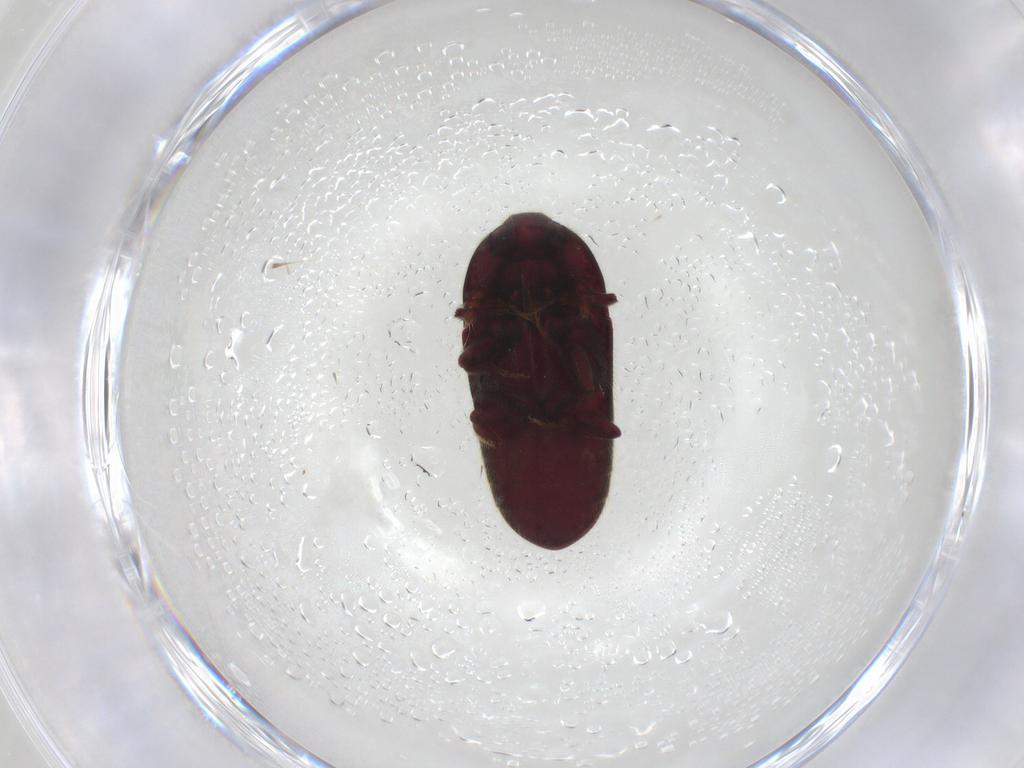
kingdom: Animalia
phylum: Arthropoda
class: Insecta
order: Coleoptera
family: Throscidae
